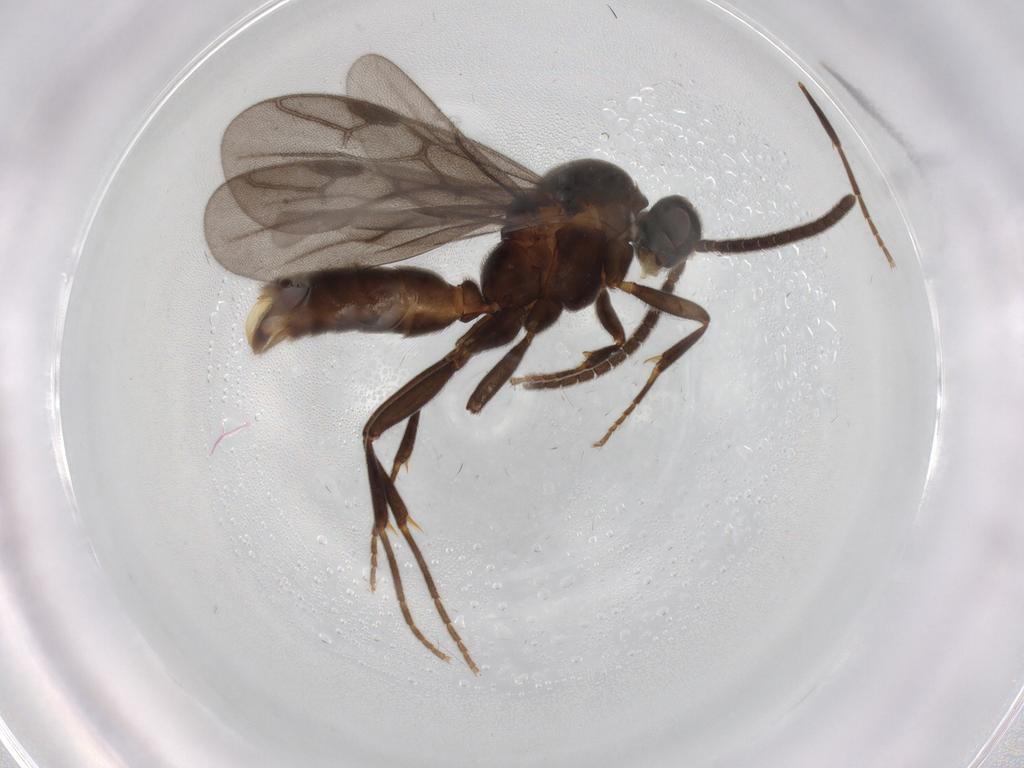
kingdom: Animalia
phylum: Arthropoda
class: Insecta
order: Hymenoptera
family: Formicidae
